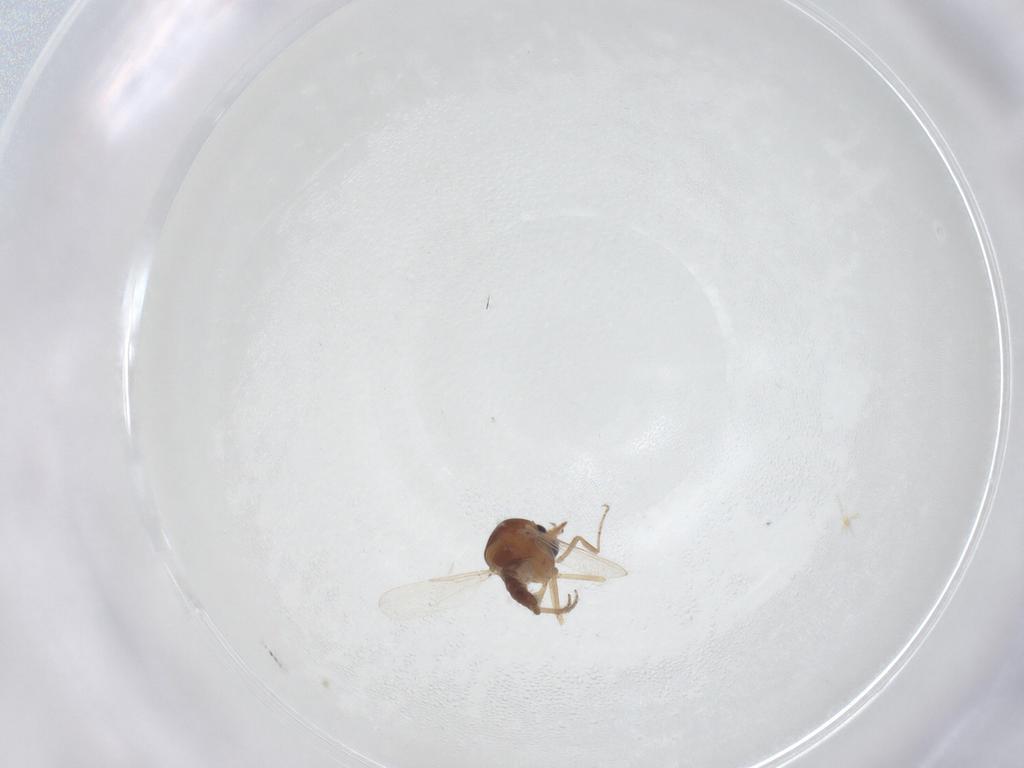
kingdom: Animalia
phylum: Arthropoda
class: Insecta
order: Diptera
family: Ceratopogonidae
